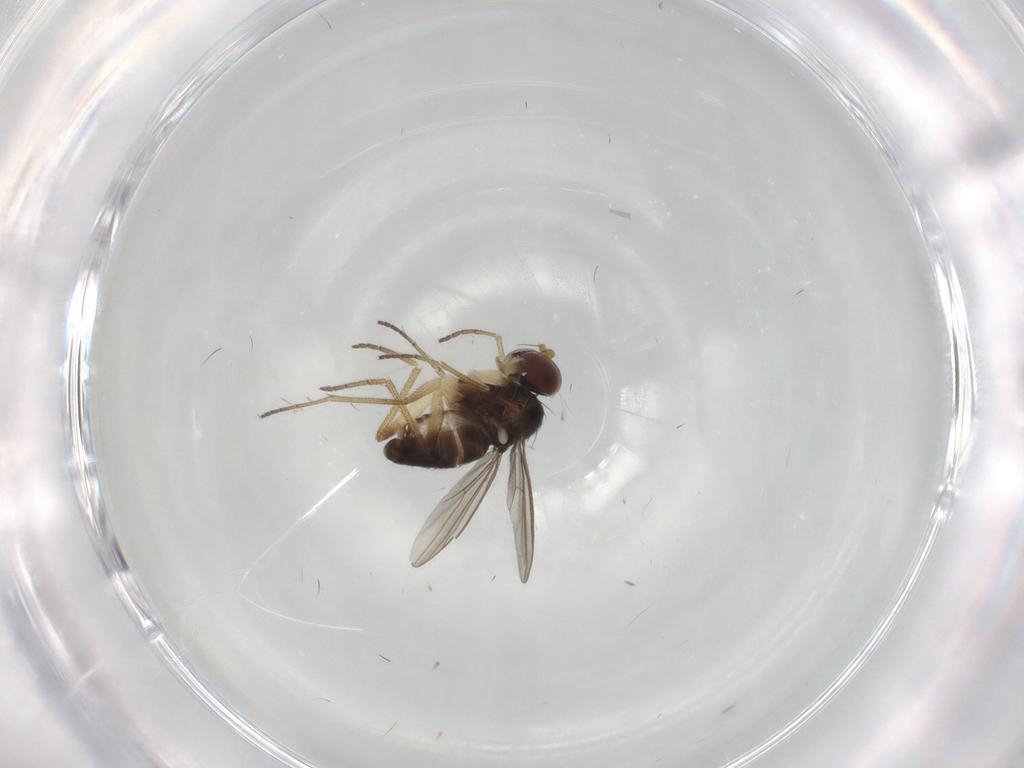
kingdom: Animalia
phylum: Arthropoda
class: Insecta
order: Diptera
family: Dolichopodidae
